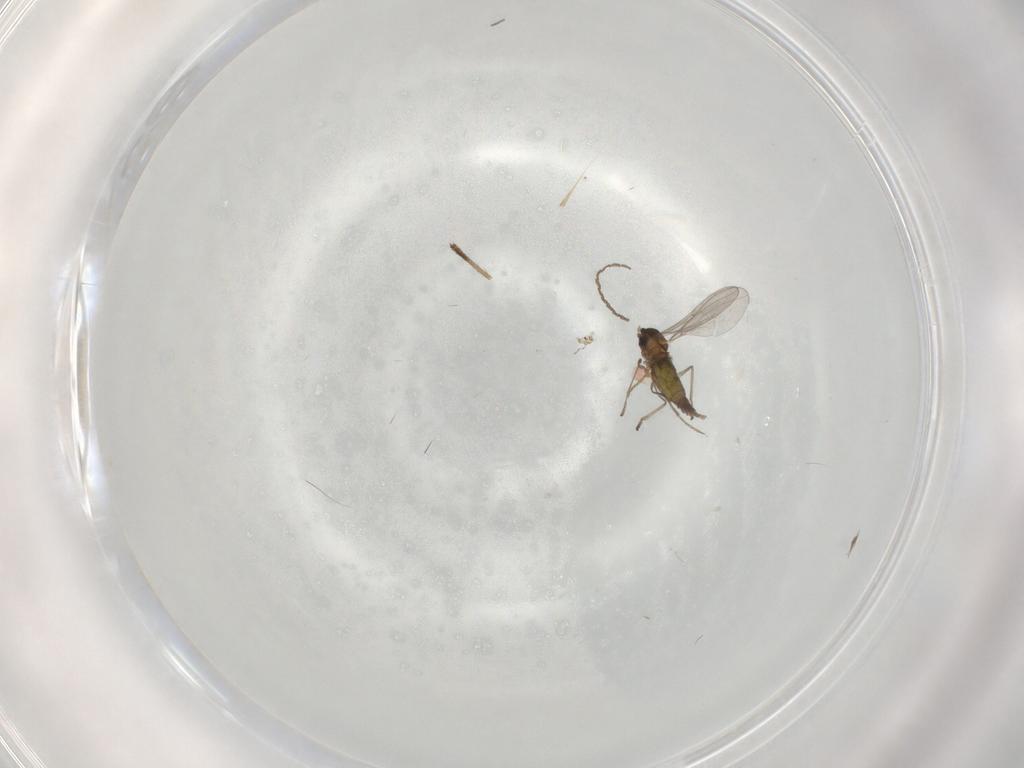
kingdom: Animalia
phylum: Arthropoda
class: Insecta
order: Diptera
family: Cecidomyiidae
